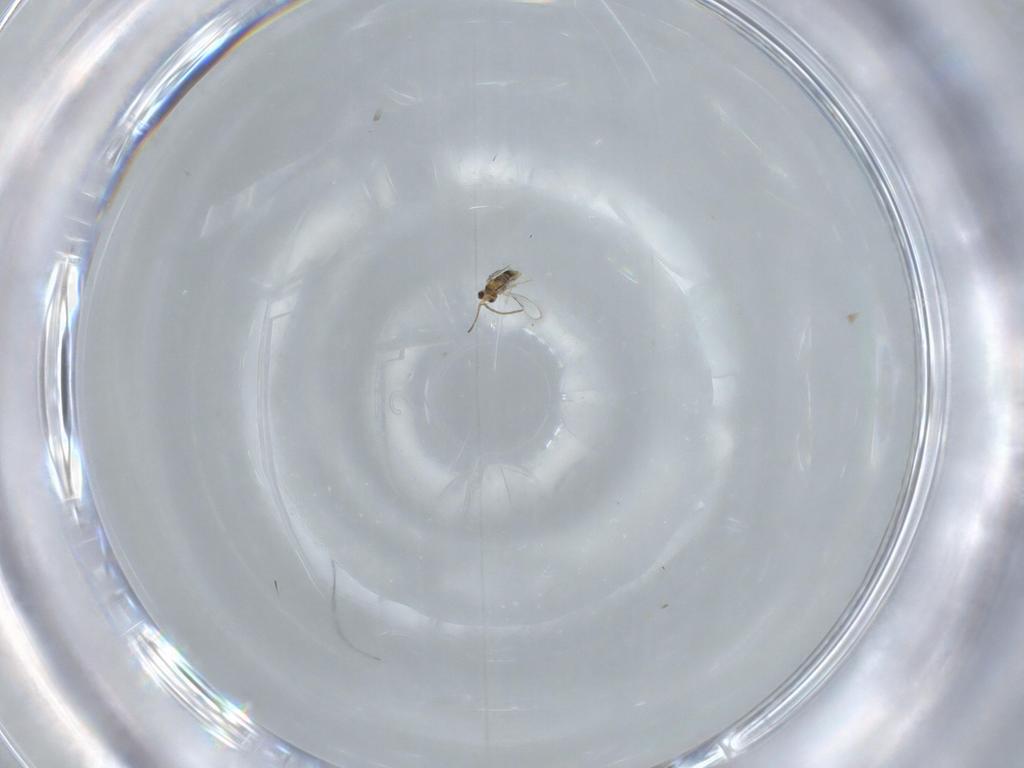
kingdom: Animalia
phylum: Arthropoda
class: Insecta
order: Hymenoptera
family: Aphelinidae
